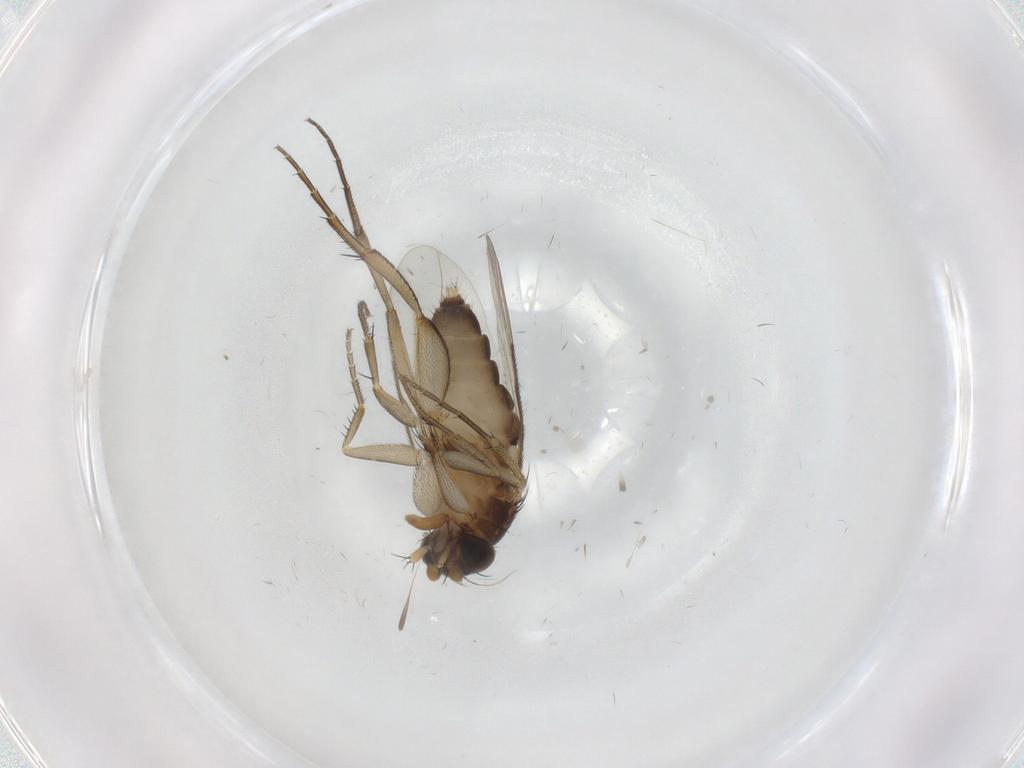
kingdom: Animalia
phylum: Arthropoda
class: Insecta
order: Diptera
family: Phoridae
